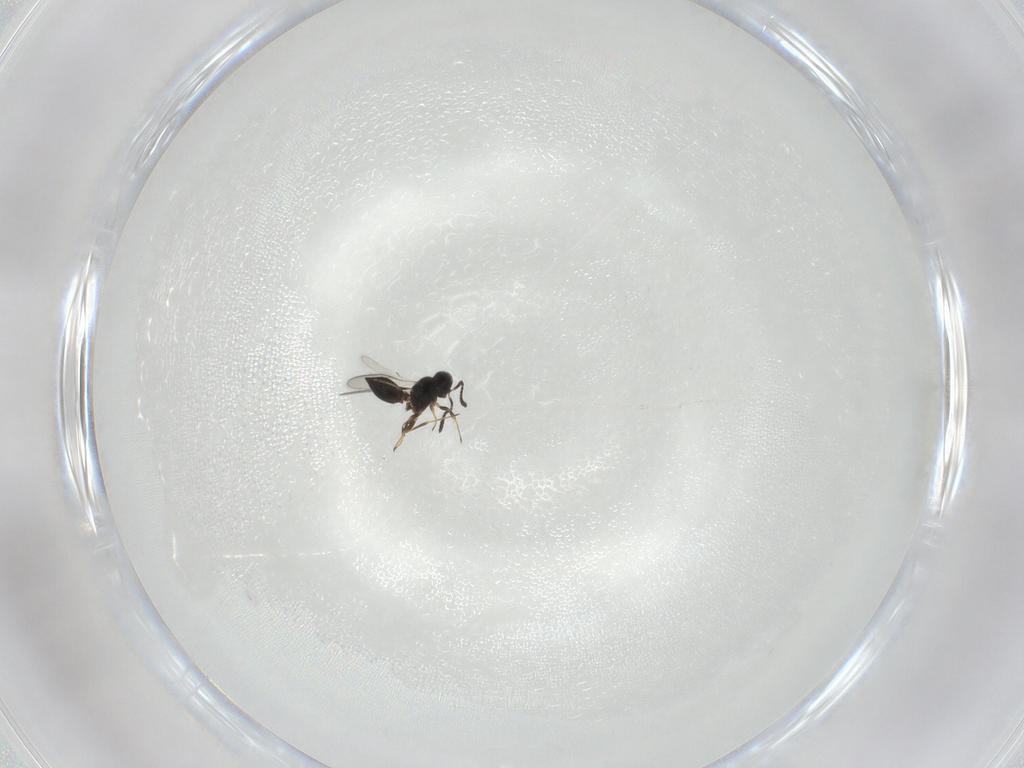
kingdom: Animalia
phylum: Arthropoda
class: Insecta
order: Hymenoptera
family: Scelionidae
